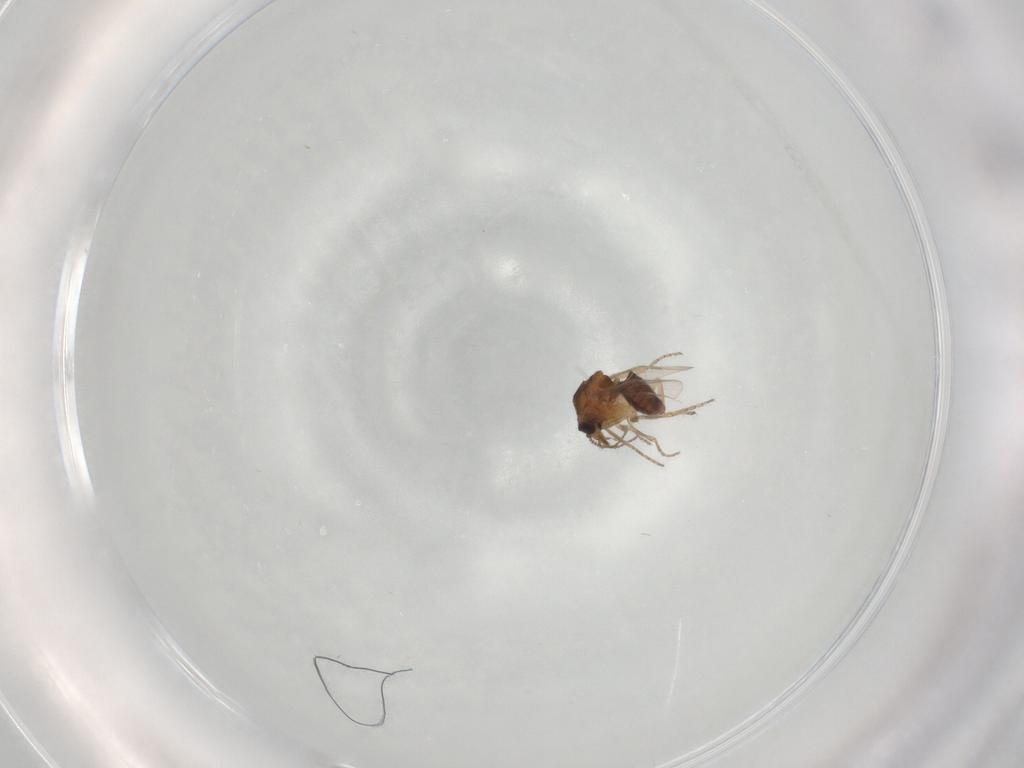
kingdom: Animalia
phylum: Arthropoda
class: Insecta
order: Diptera
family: Ceratopogonidae
